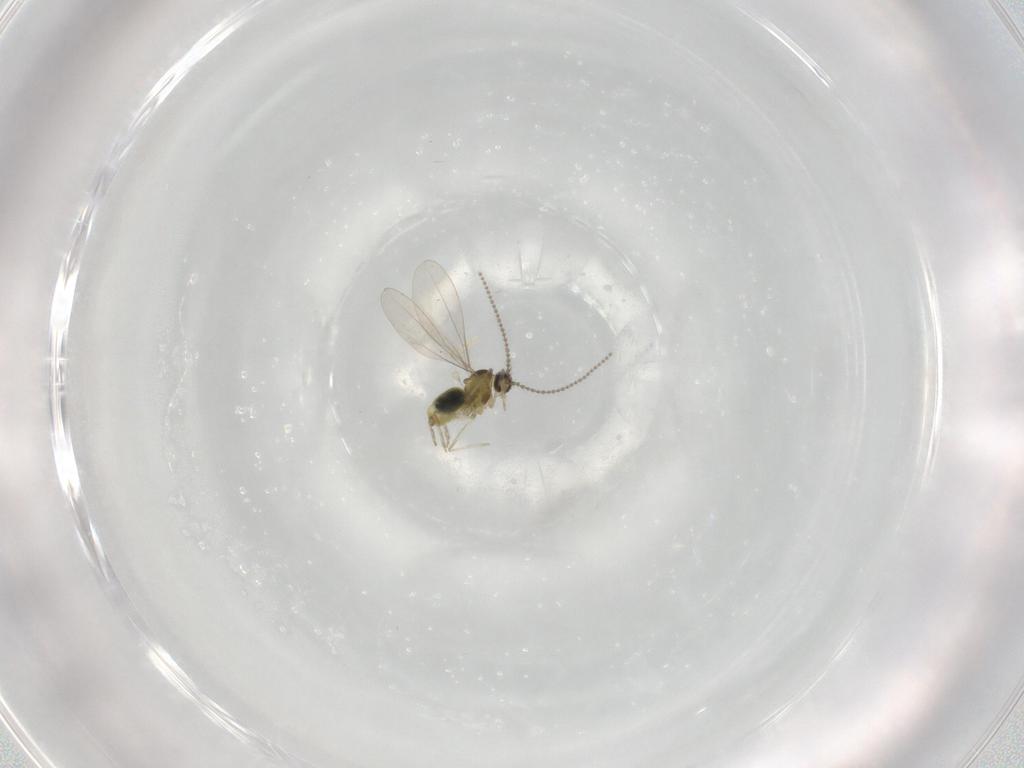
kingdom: Animalia
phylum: Arthropoda
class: Insecta
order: Diptera
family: Cecidomyiidae
